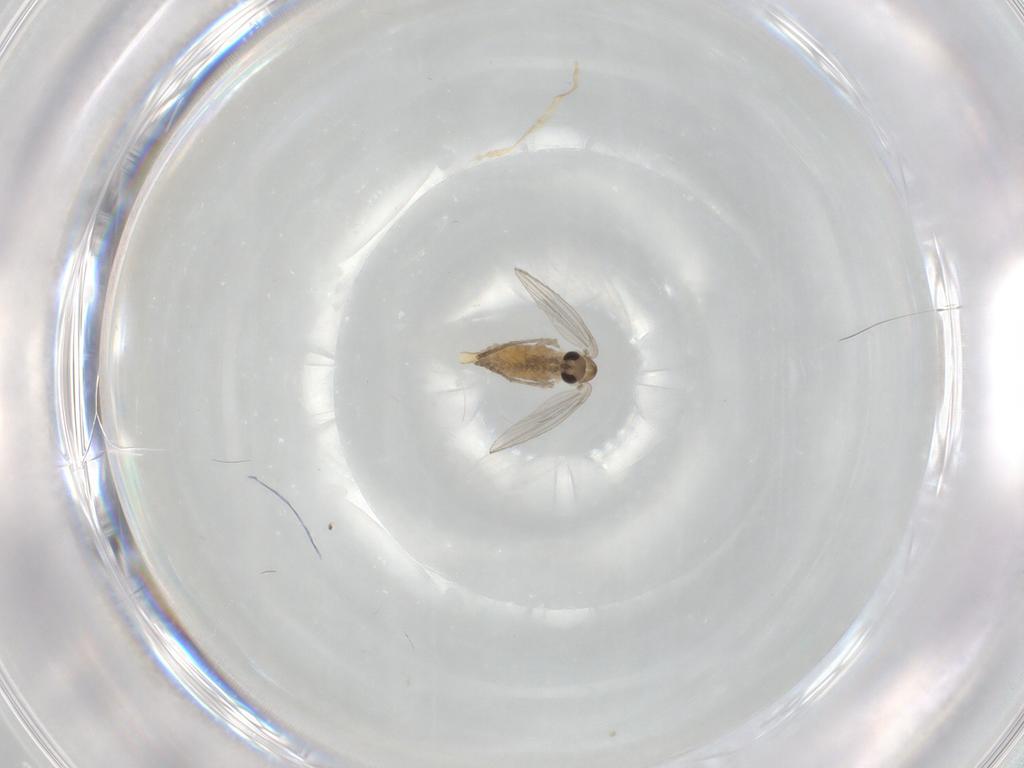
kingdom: Animalia
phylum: Arthropoda
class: Insecta
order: Diptera
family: Psychodidae
